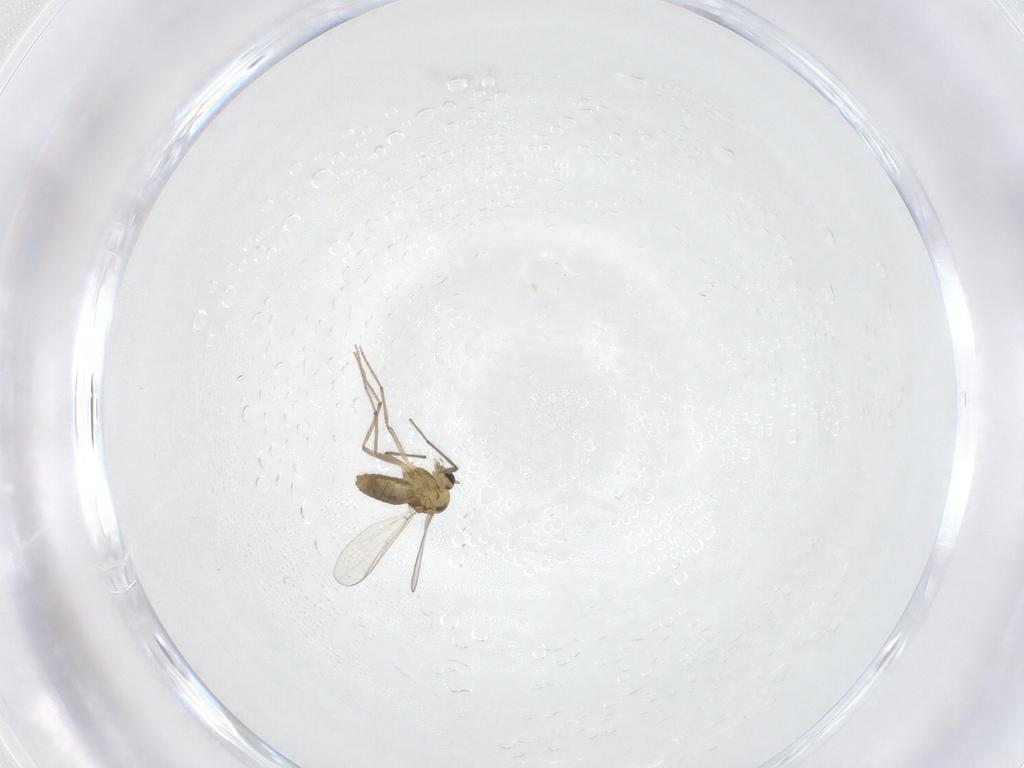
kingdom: Animalia
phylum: Arthropoda
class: Insecta
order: Diptera
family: Chironomidae
